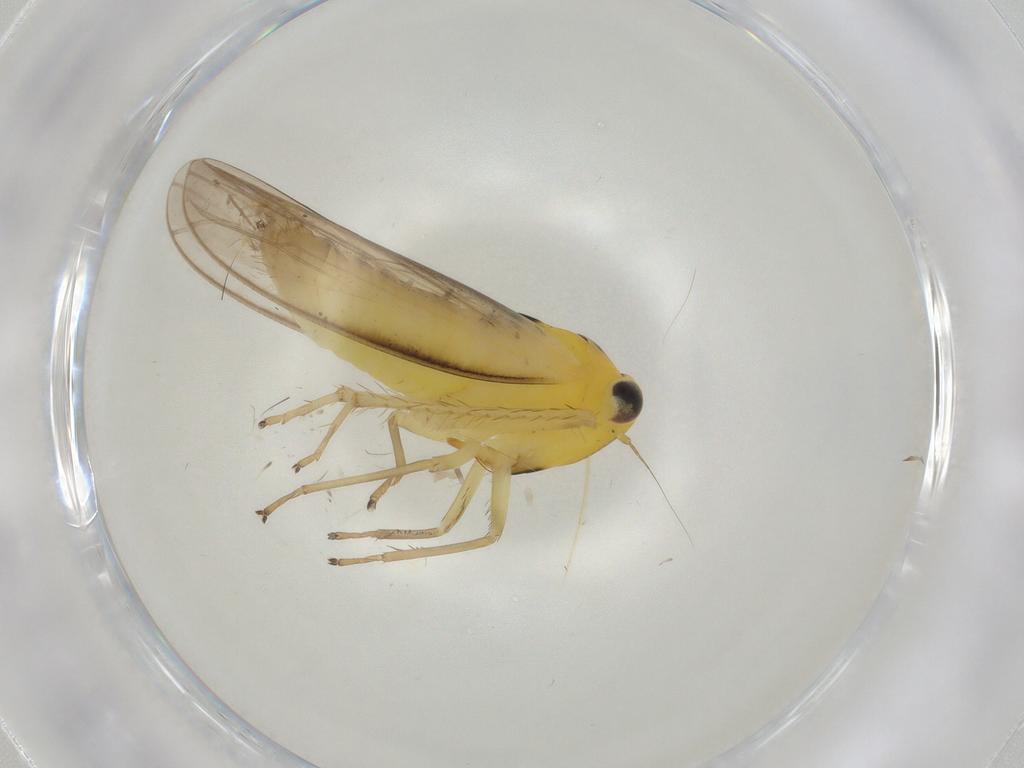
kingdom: Animalia
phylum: Arthropoda
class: Insecta
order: Hemiptera
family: Cicadellidae
